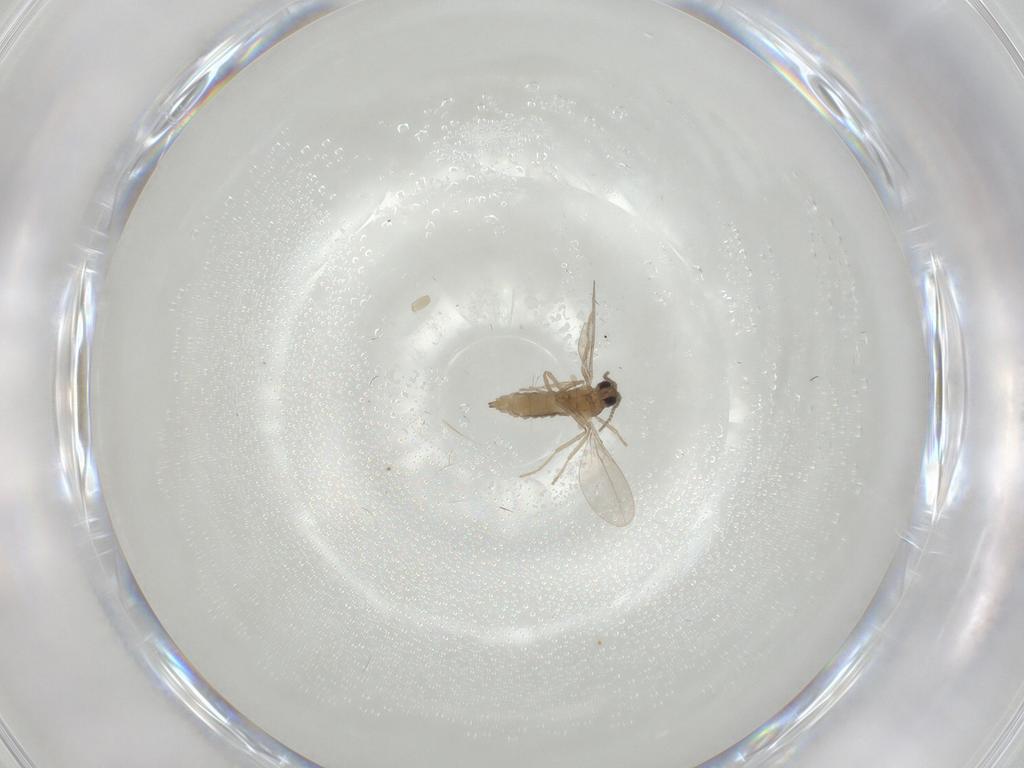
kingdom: Animalia
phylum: Arthropoda
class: Insecta
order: Diptera
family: Cecidomyiidae
